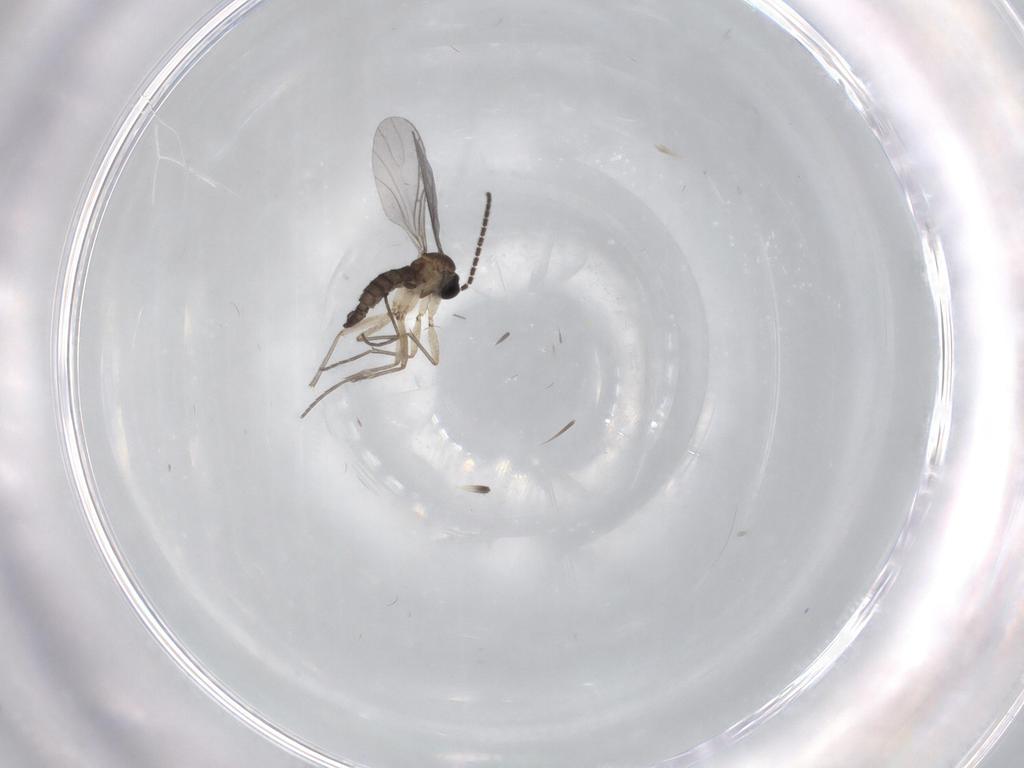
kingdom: Animalia
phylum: Arthropoda
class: Insecta
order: Diptera
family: Sciaridae
